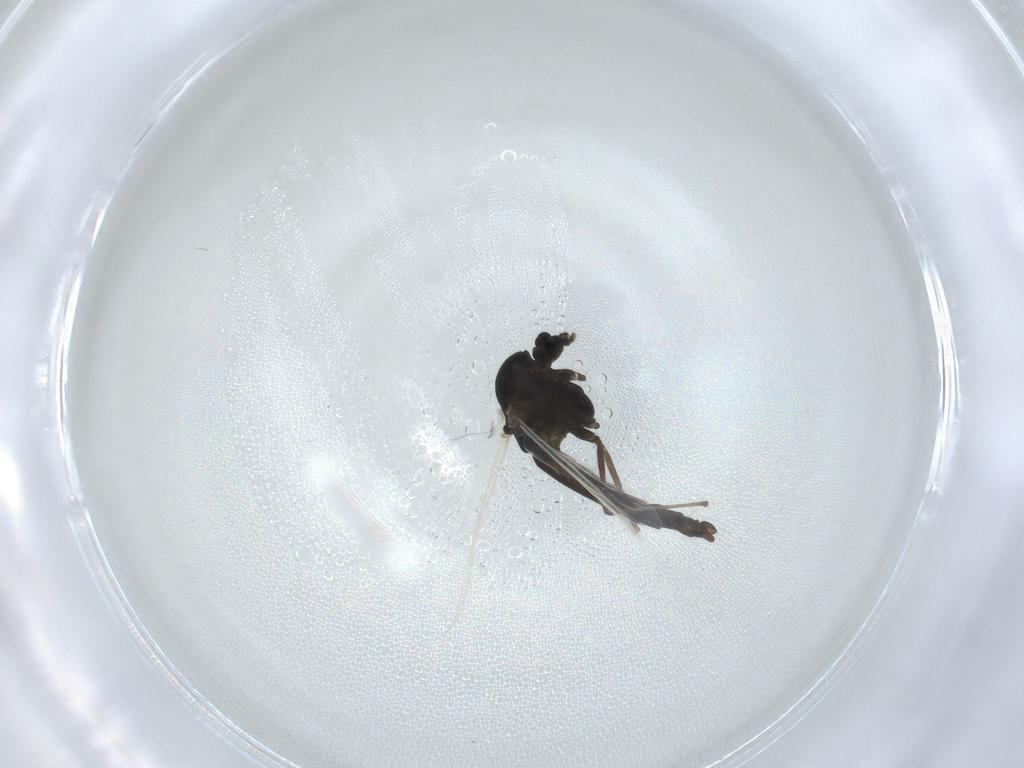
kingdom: Animalia
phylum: Arthropoda
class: Insecta
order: Diptera
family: Chironomidae
